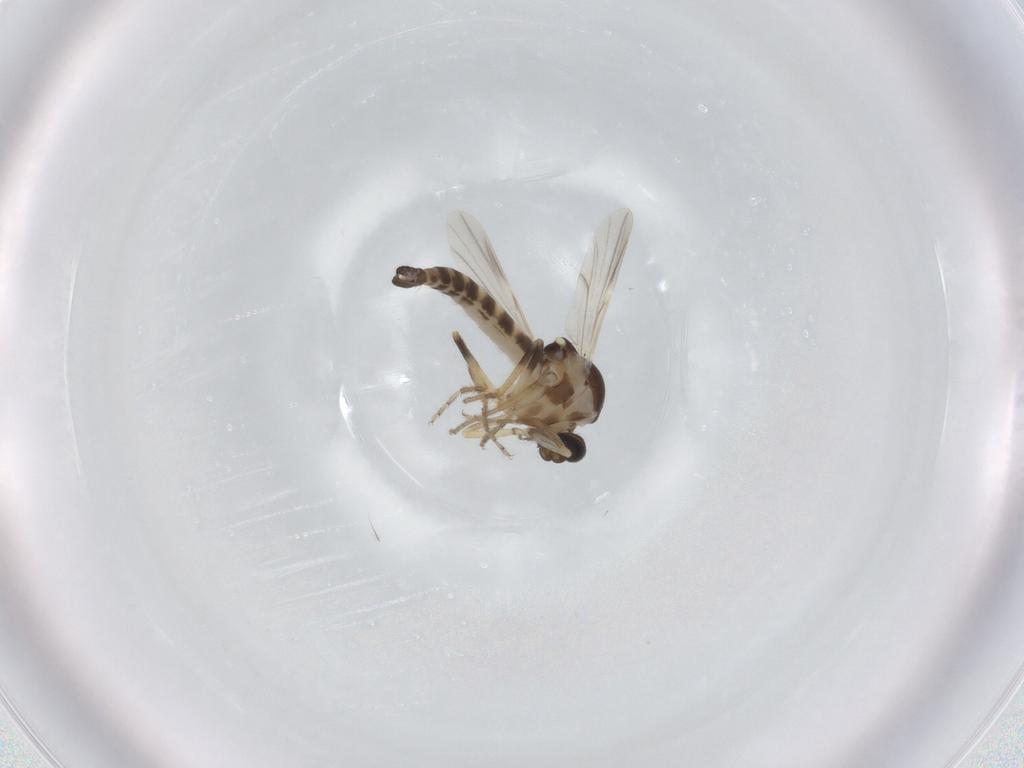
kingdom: Animalia
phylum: Arthropoda
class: Insecta
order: Diptera
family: Ceratopogonidae
